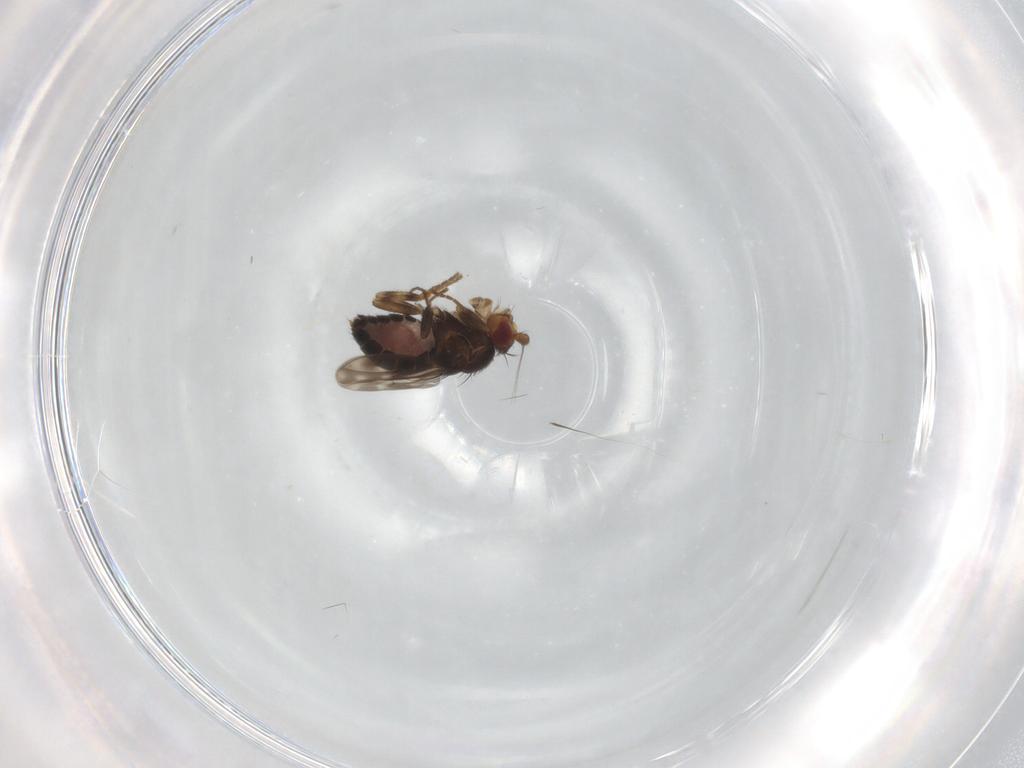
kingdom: Animalia
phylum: Arthropoda
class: Insecta
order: Diptera
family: Sphaeroceridae
